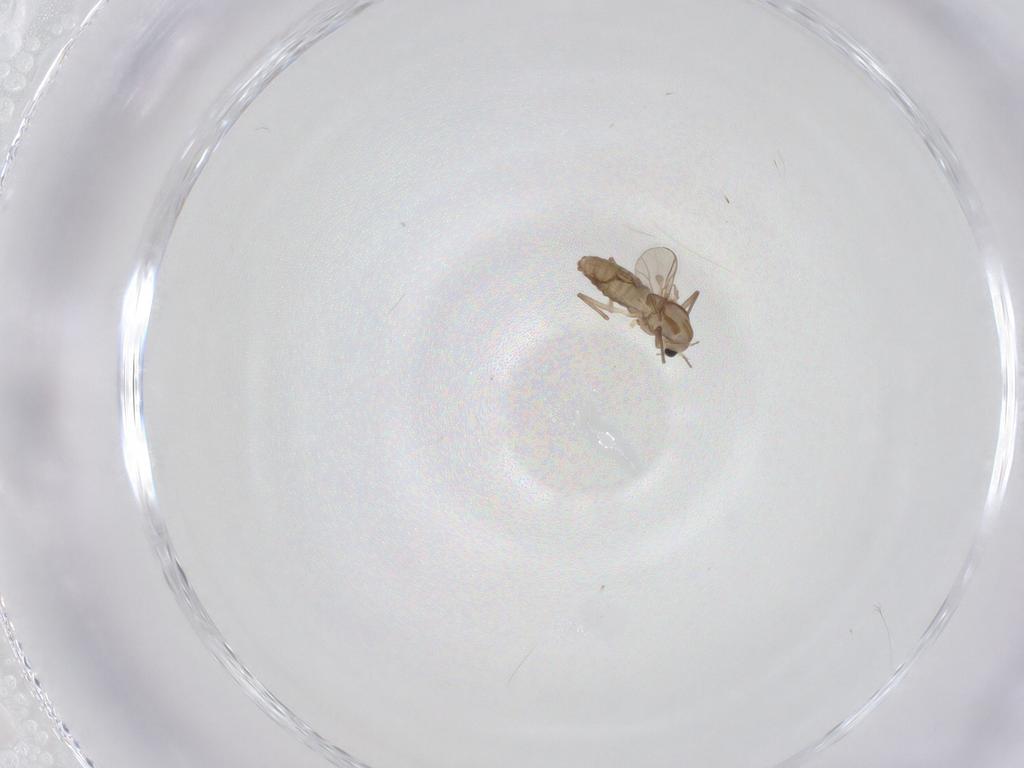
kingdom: Animalia
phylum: Arthropoda
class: Insecta
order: Diptera
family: Chironomidae
